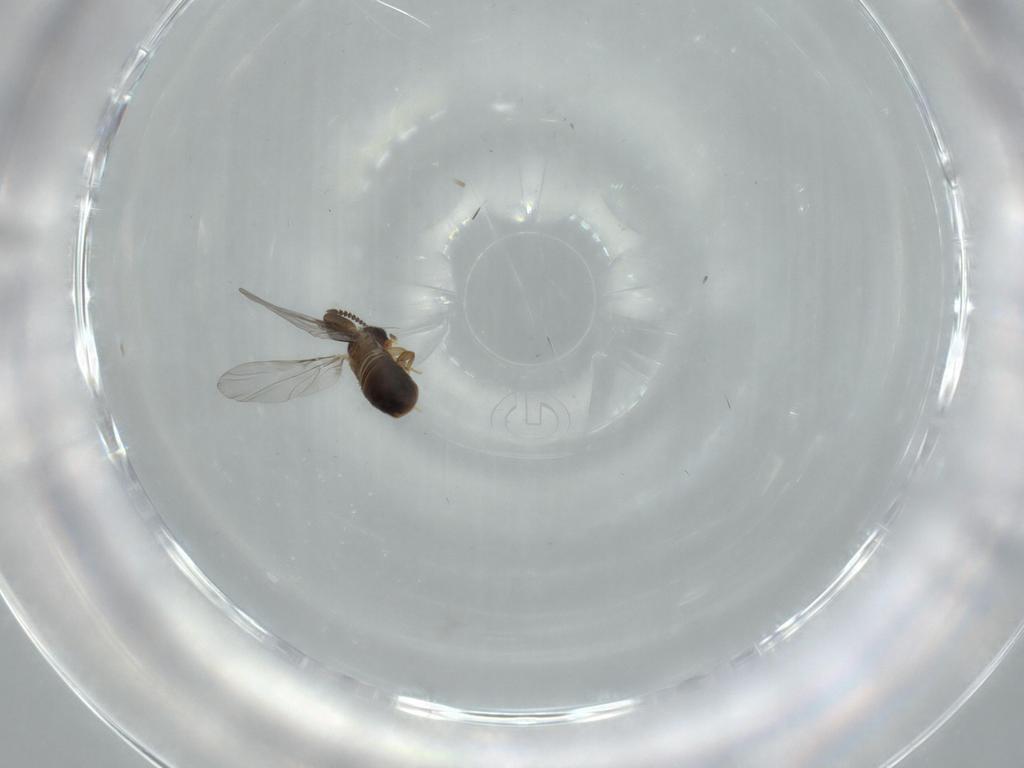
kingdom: Animalia
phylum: Arthropoda
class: Insecta
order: Coleoptera
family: Staphylinidae
